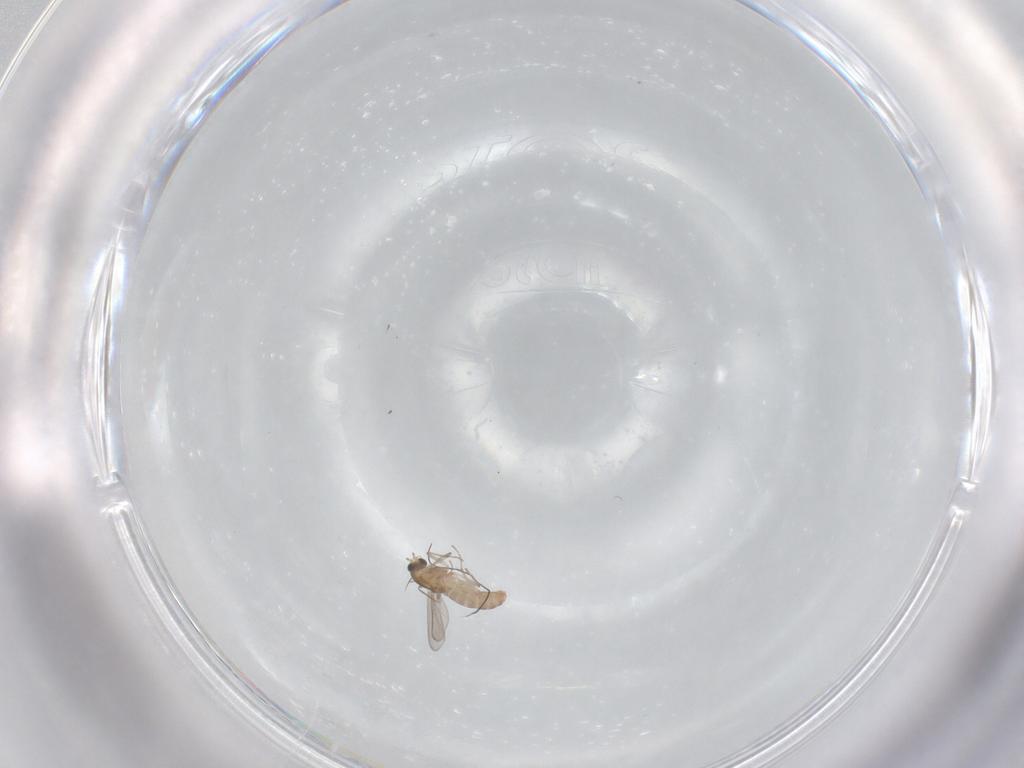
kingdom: Animalia
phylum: Arthropoda
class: Insecta
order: Diptera
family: Chironomidae
